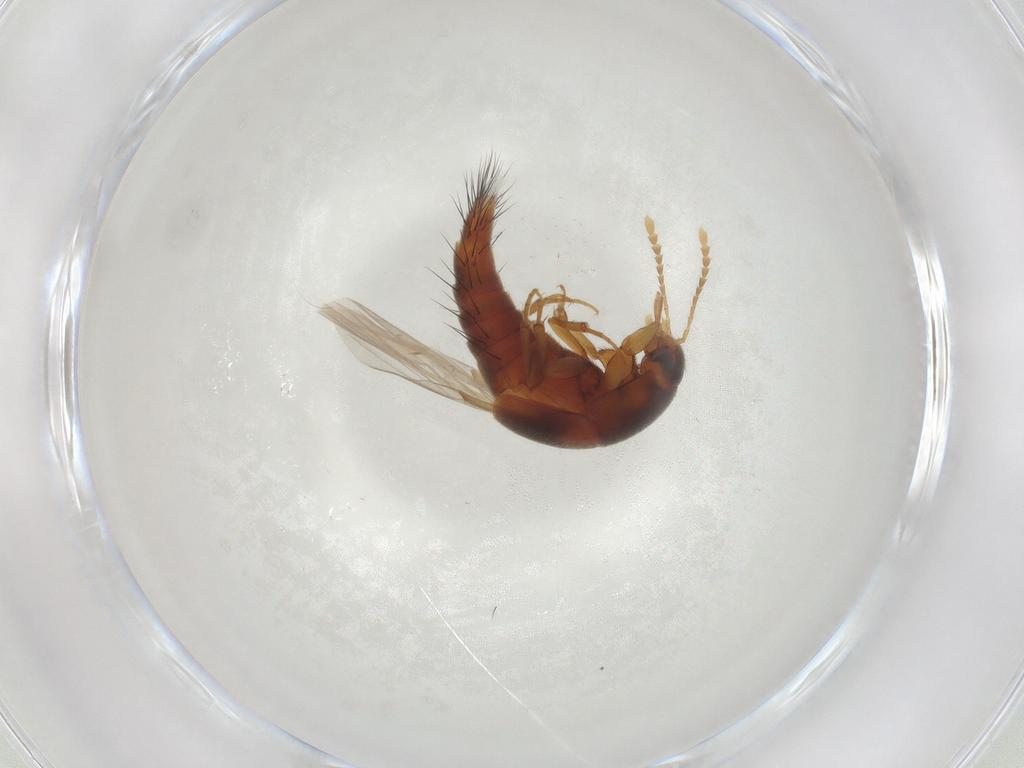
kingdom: Animalia
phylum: Arthropoda
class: Insecta
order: Coleoptera
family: Staphylinidae
